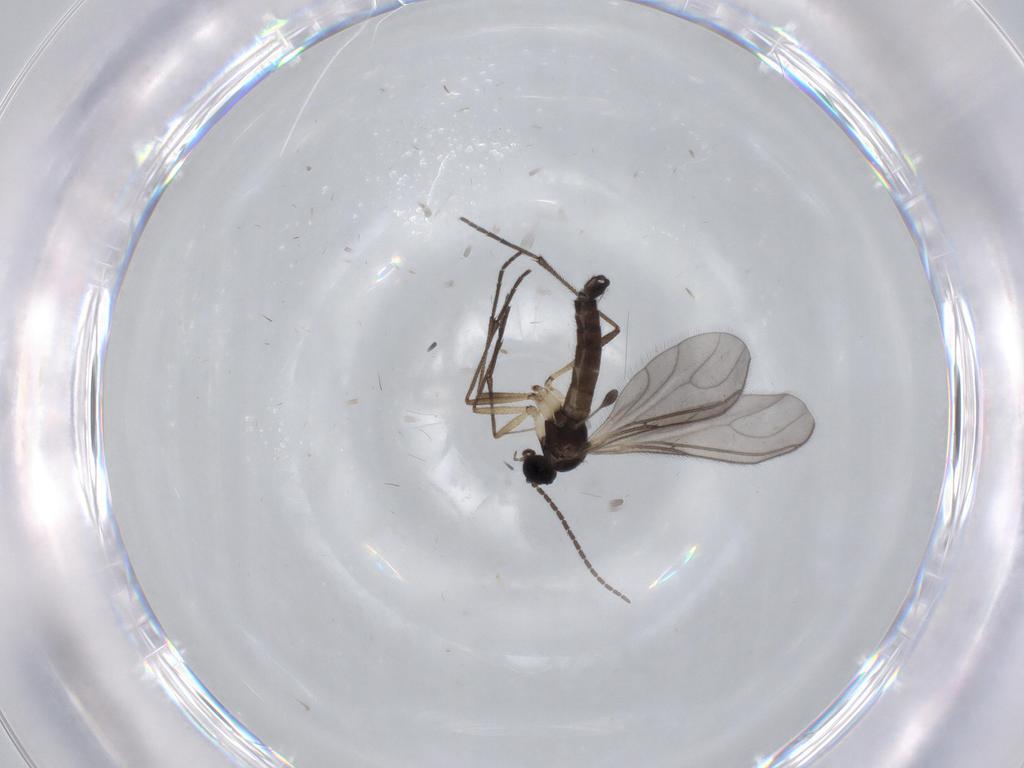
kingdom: Animalia
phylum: Arthropoda
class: Insecta
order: Diptera
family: Sciaridae
